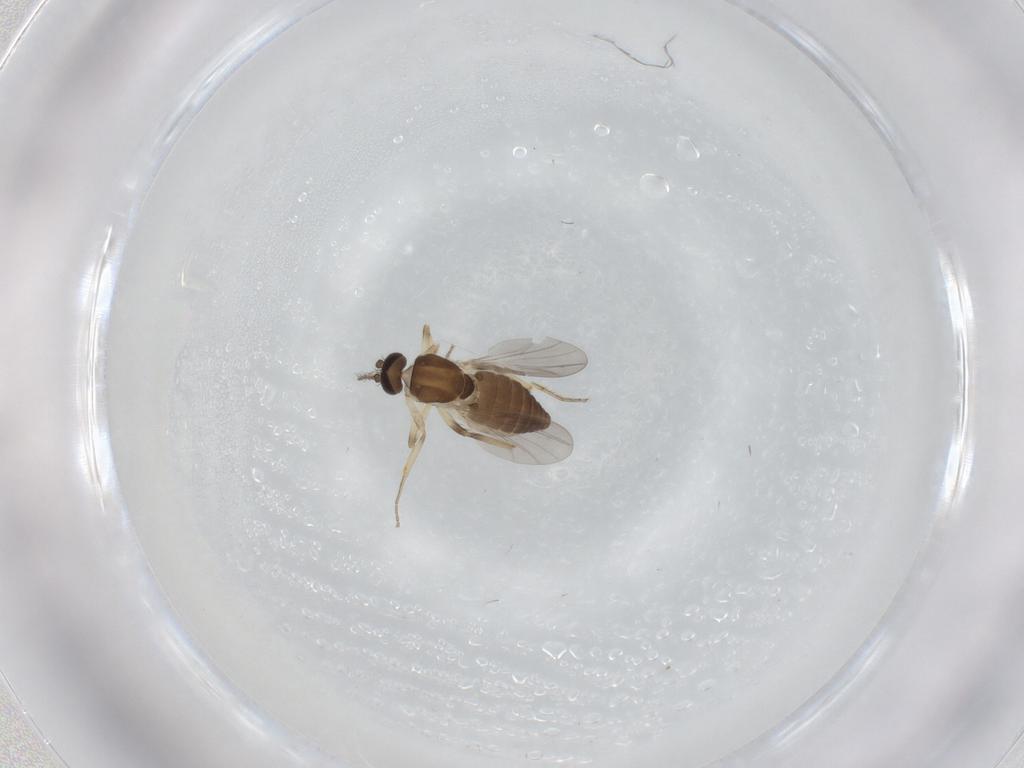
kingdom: Animalia
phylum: Arthropoda
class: Insecta
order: Diptera
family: Ceratopogonidae
